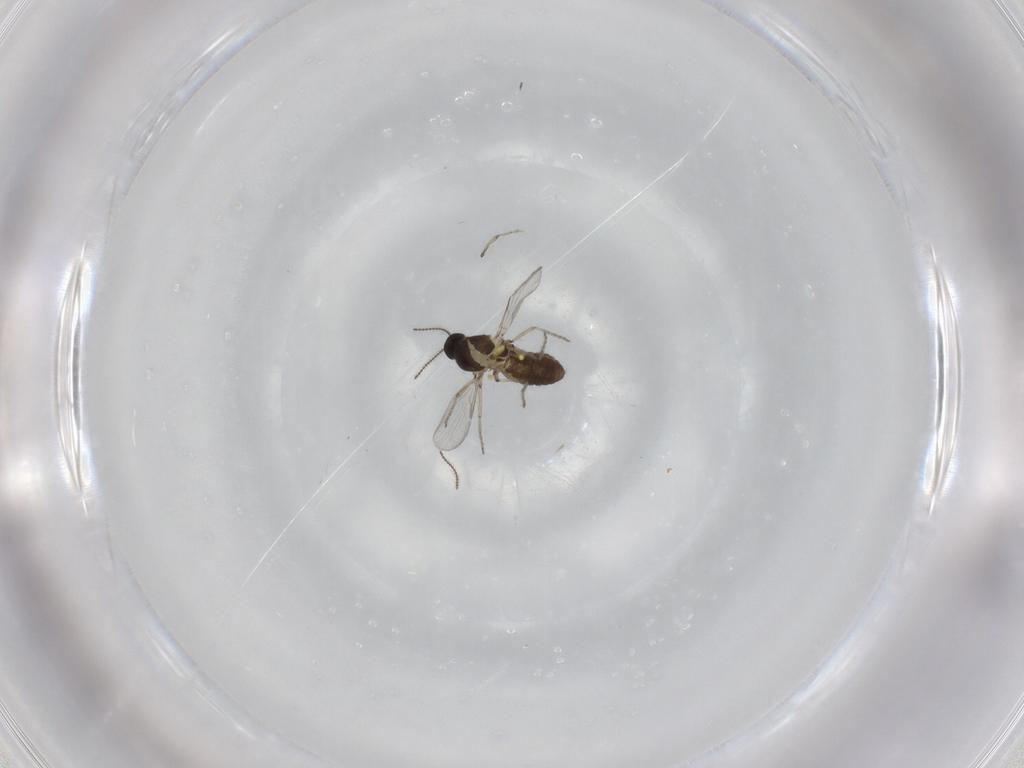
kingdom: Animalia
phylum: Arthropoda
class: Insecta
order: Diptera
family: Ceratopogonidae
